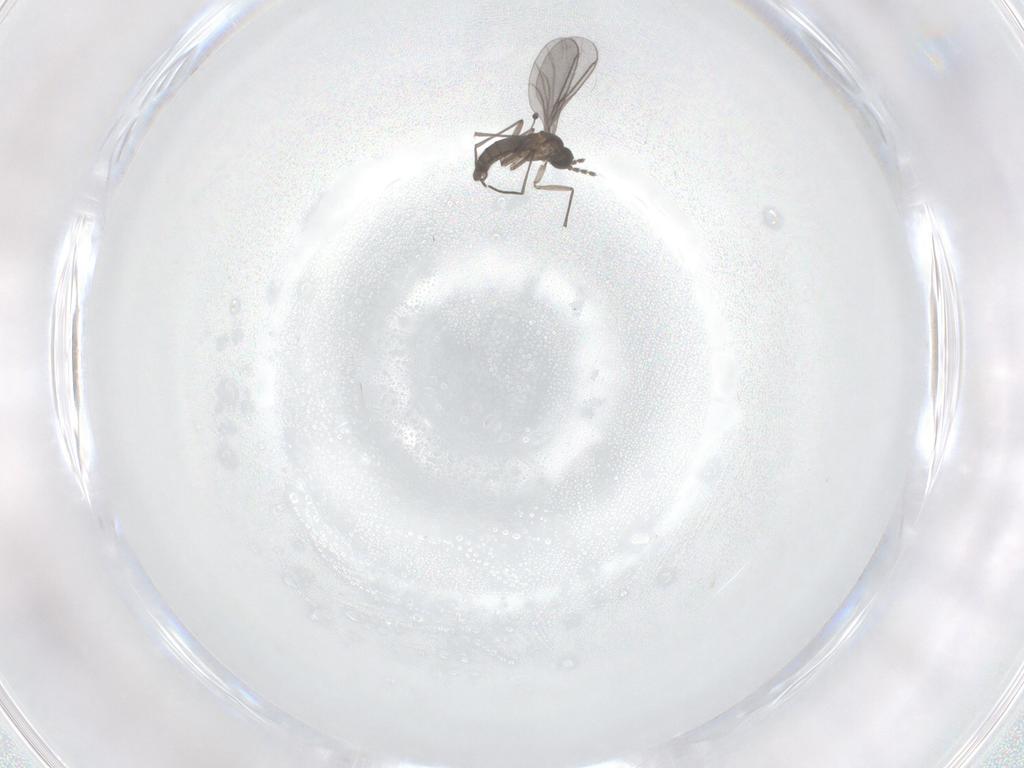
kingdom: Animalia
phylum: Arthropoda
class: Insecta
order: Diptera
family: Phoridae
